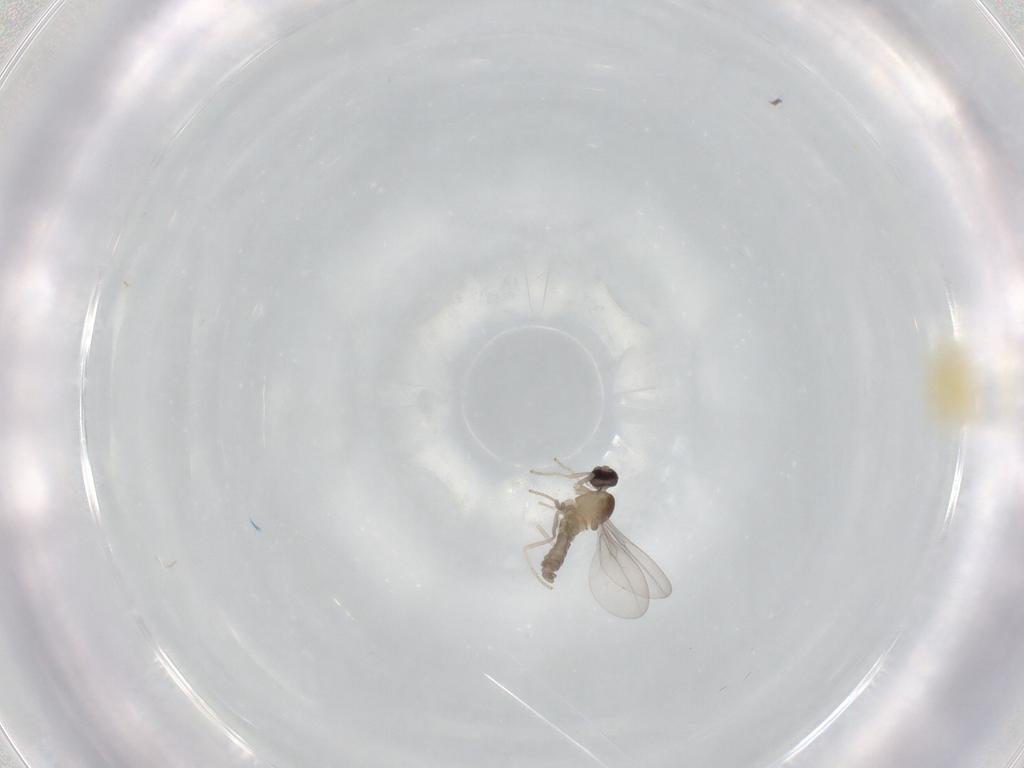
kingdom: Animalia
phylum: Arthropoda
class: Insecta
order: Diptera
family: Cecidomyiidae
